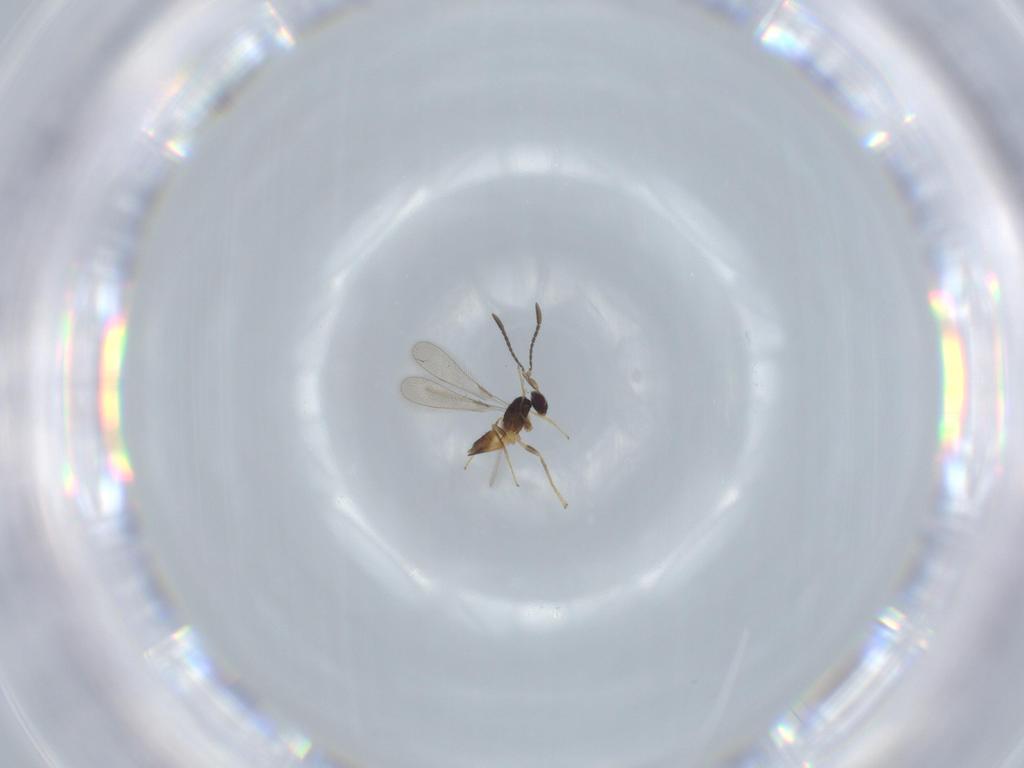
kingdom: Animalia
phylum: Arthropoda
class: Insecta
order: Hymenoptera
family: Mymaridae
